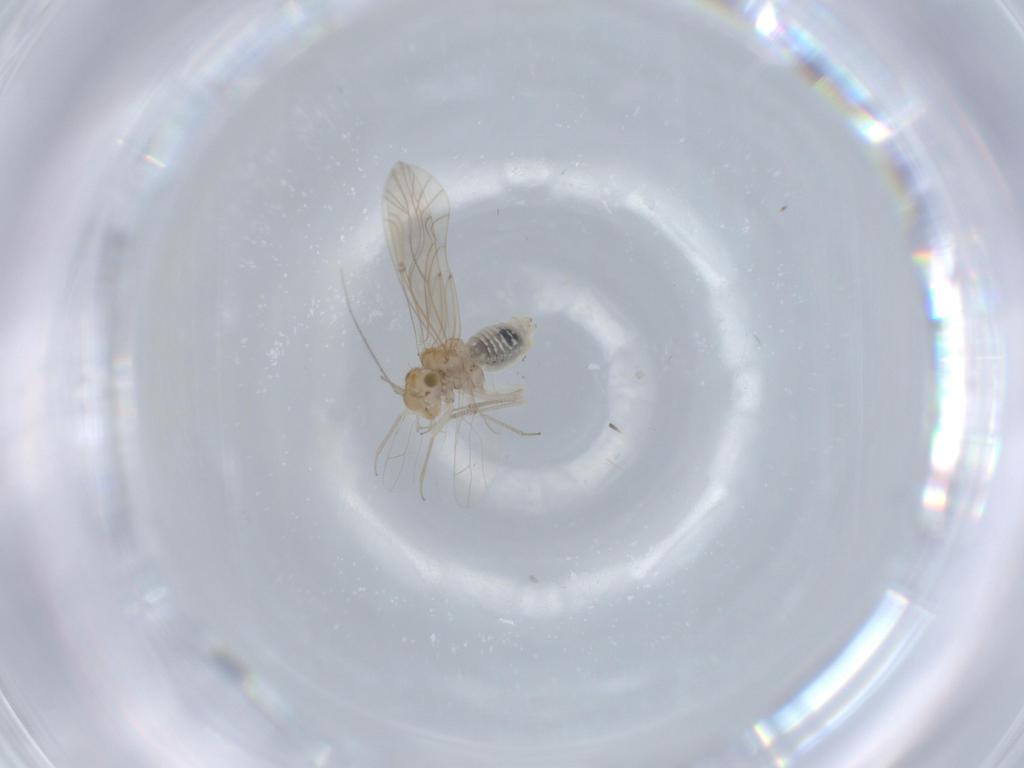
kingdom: Animalia
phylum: Arthropoda
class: Insecta
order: Psocodea
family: Lachesillidae
